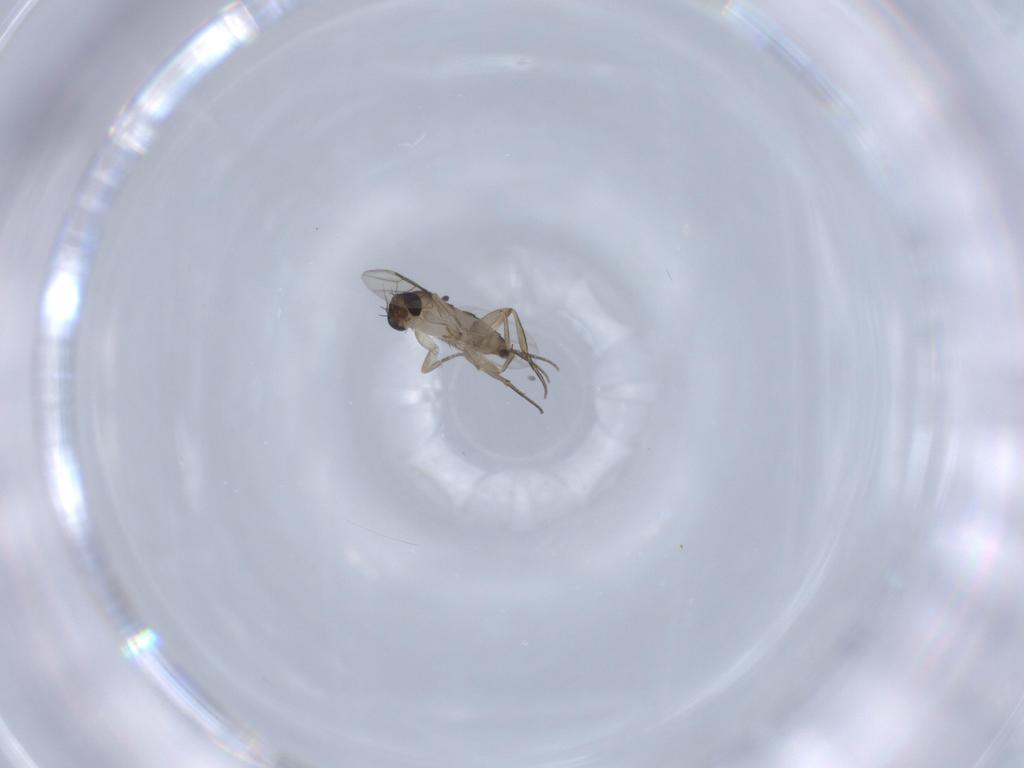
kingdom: Animalia
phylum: Arthropoda
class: Insecta
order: Diptera
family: Phoridae
